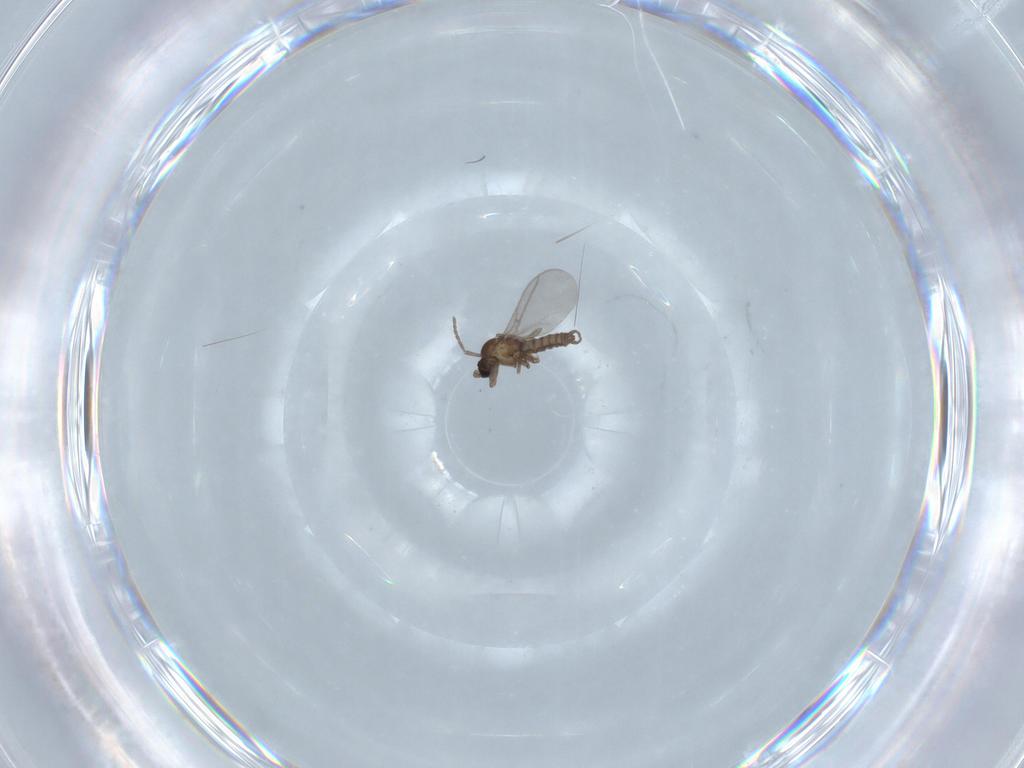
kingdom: Animalia
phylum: Arthropoda
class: Insecta
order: Diptera
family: Sciaridae
